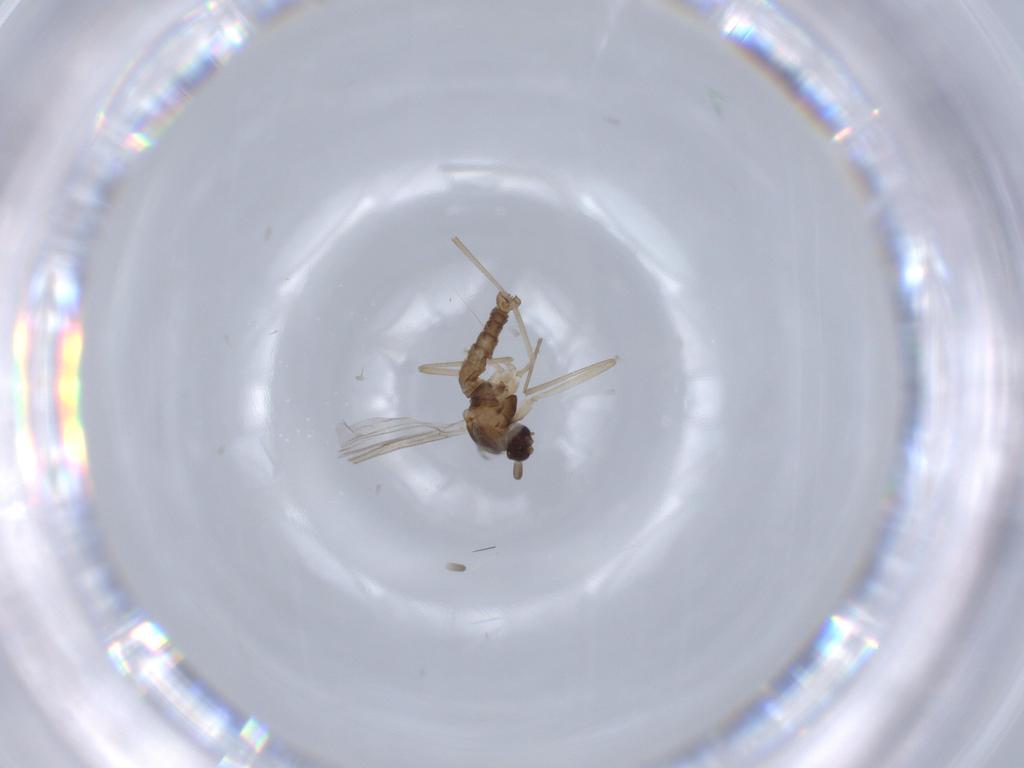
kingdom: Animalia
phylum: Arthropoda
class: Insecta
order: Diptera
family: Cecidomyiidae
